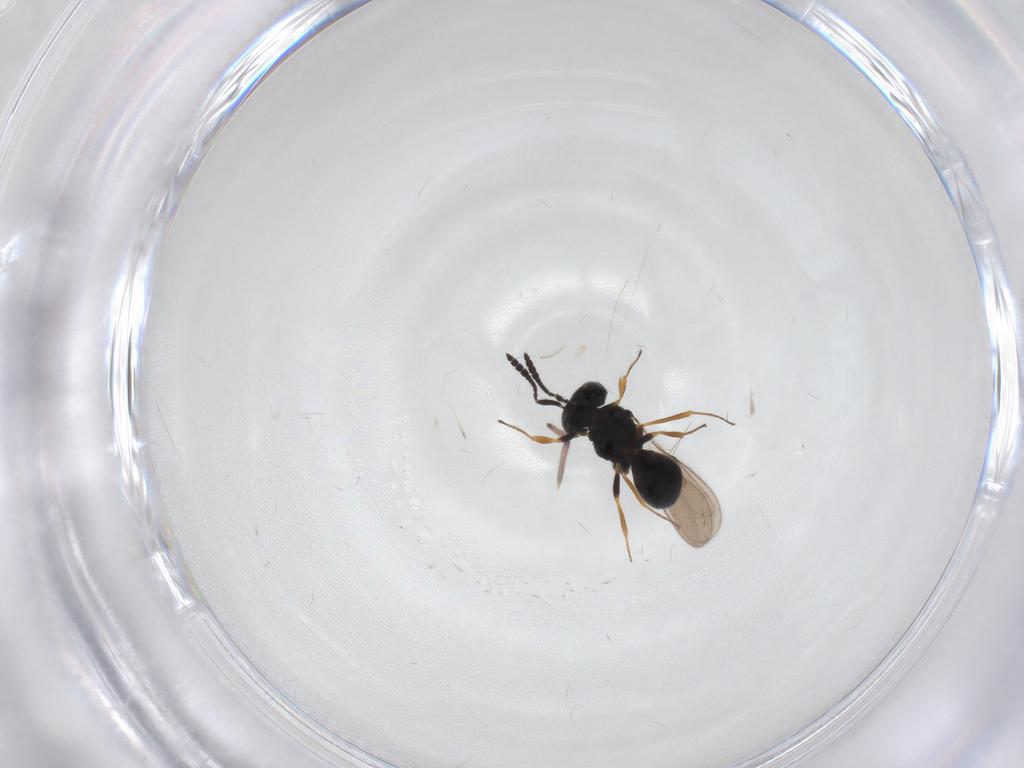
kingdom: Animalia
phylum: Arthropoda
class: Insecta
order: Hymenoptera
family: Scelionidae
